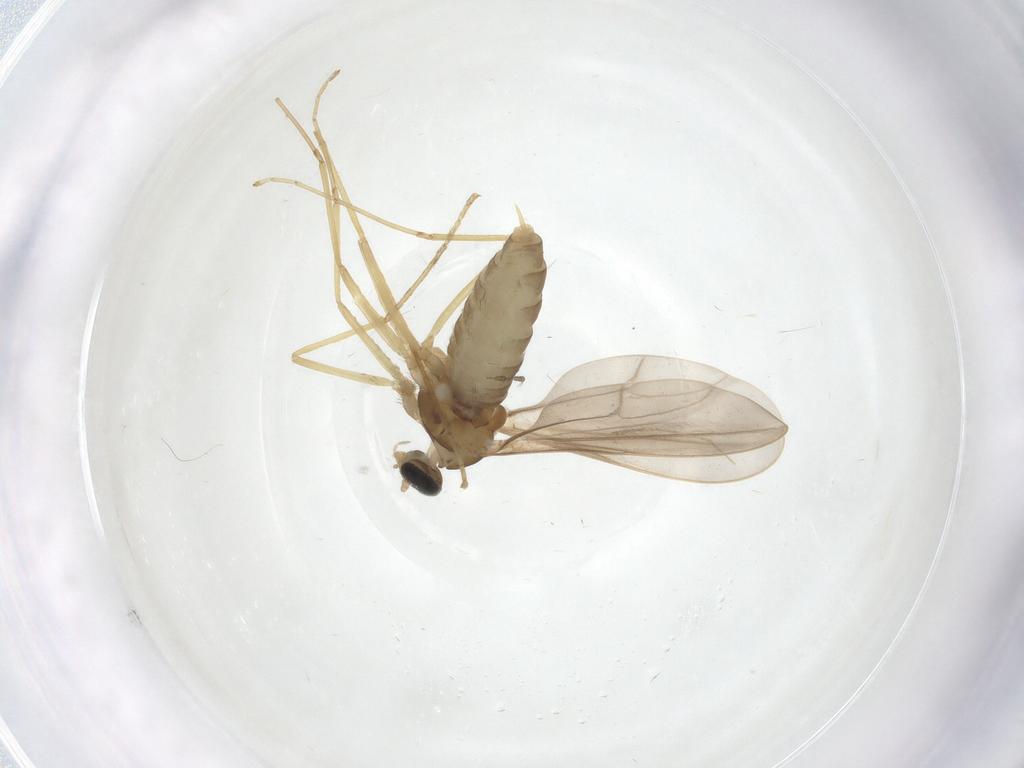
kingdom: Animalia
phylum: Arthropoda
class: Insecta
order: Diptera
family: Cecidomyiidae
